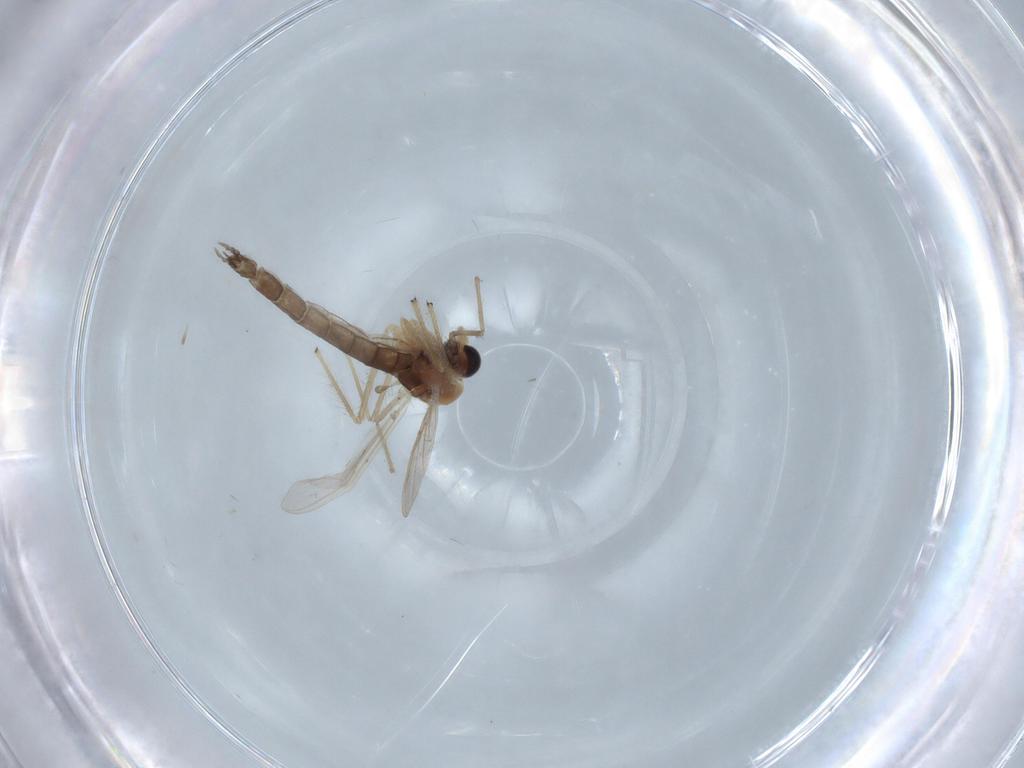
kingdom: Animalia
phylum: Arthropoda
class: Insecta
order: Diptera
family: Chironomidae
